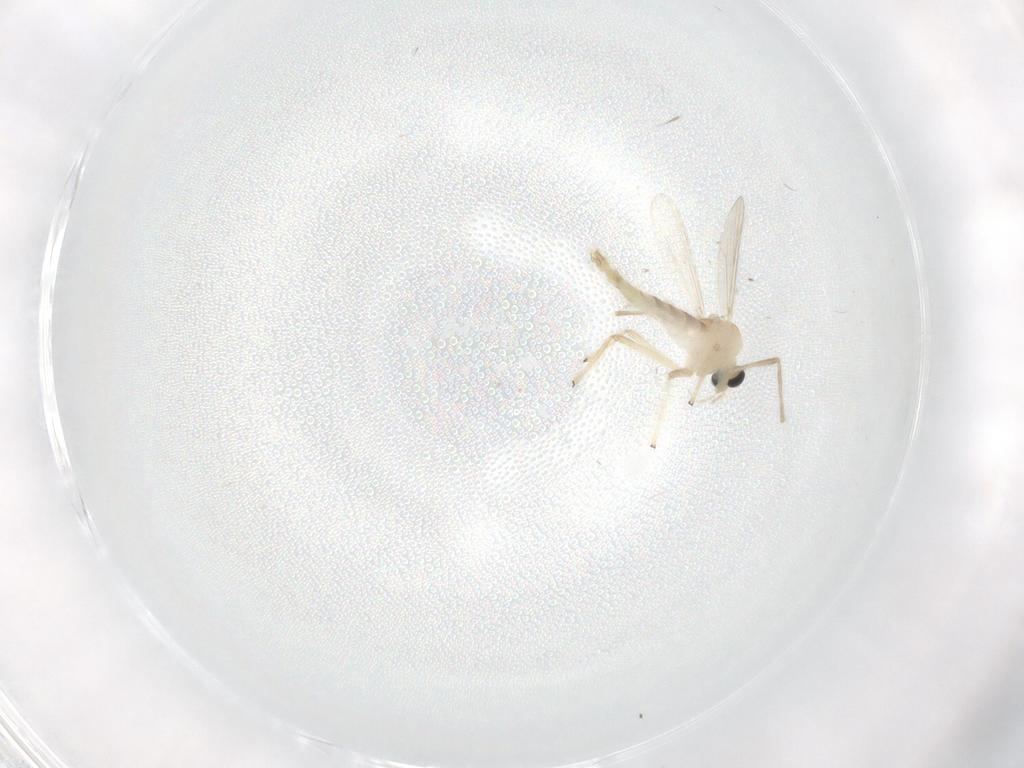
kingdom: Animalia
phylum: Arthropoda
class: Insecta
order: Diptera
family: Chironomidae
